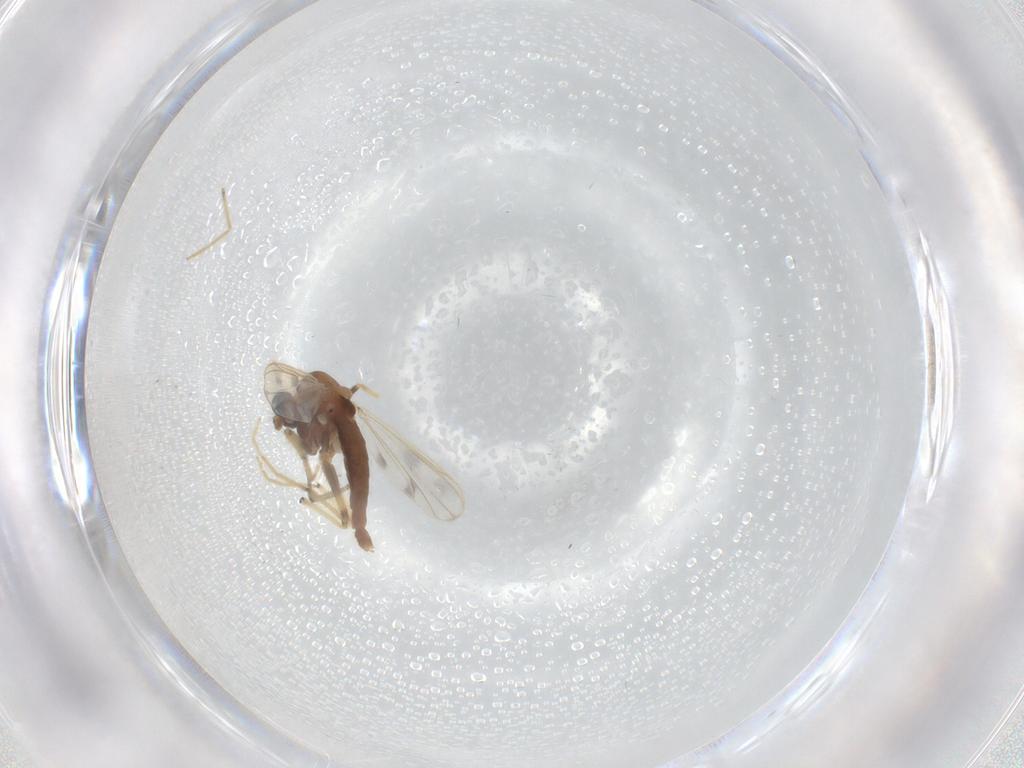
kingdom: Animalia
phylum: Arthropoda
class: Insecta
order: Diptera
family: Chironomidae
